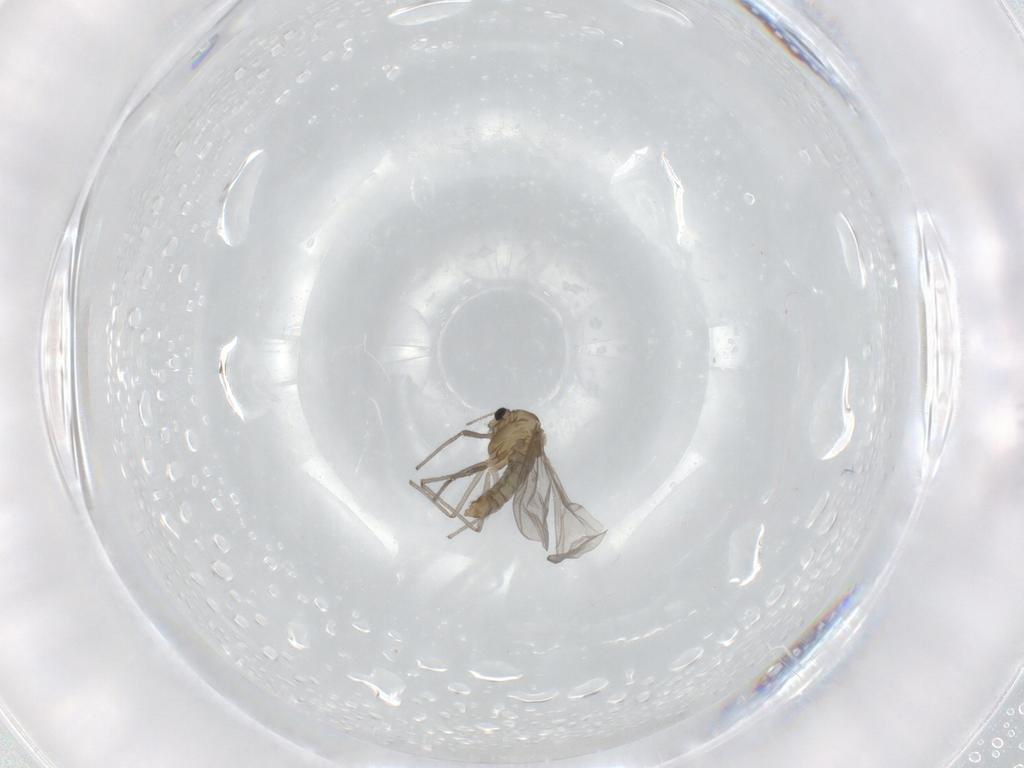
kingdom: Animalia
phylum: Arthropoda
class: Insecta
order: Diptera
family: Chironomidae
